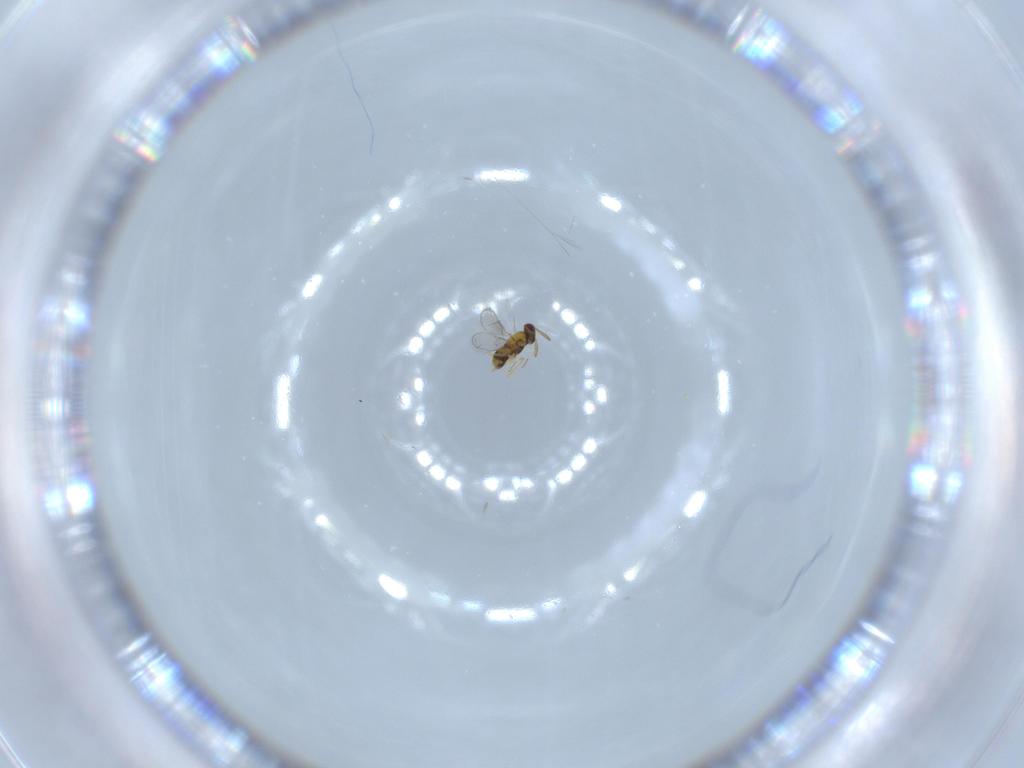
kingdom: Animalia
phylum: Arthropoda
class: Insecta
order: Hymenoptera
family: Aphelinidae
